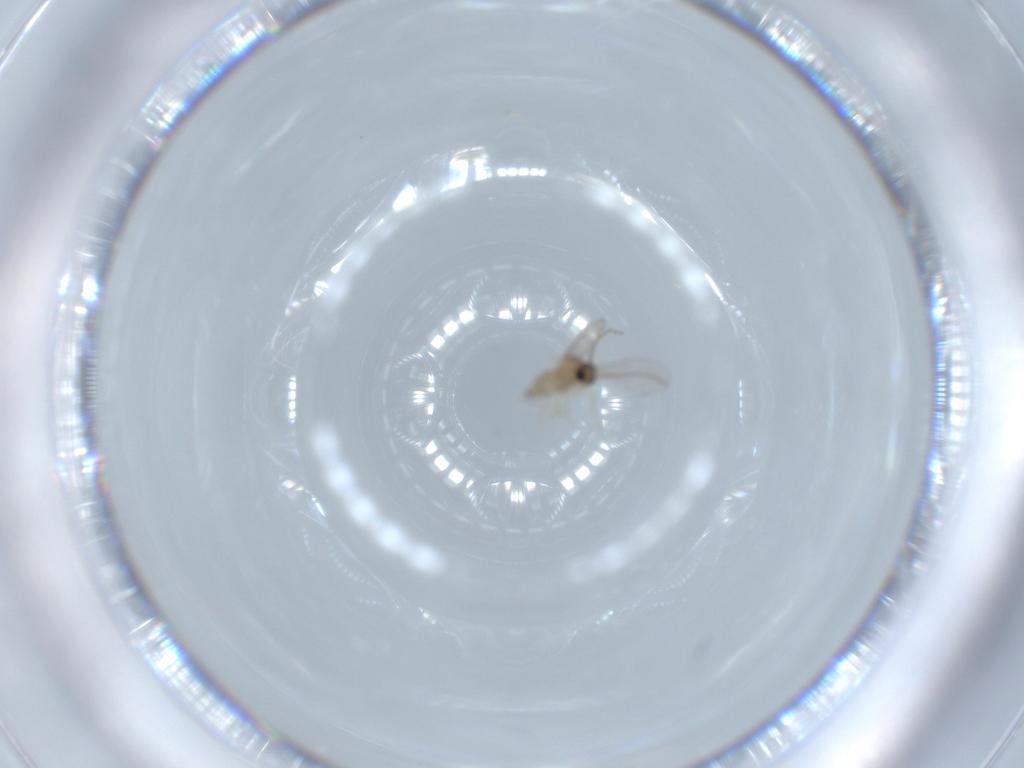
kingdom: Animalia
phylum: Arthropoda
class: Insecta
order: Diptera
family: Cecidomyiidae
